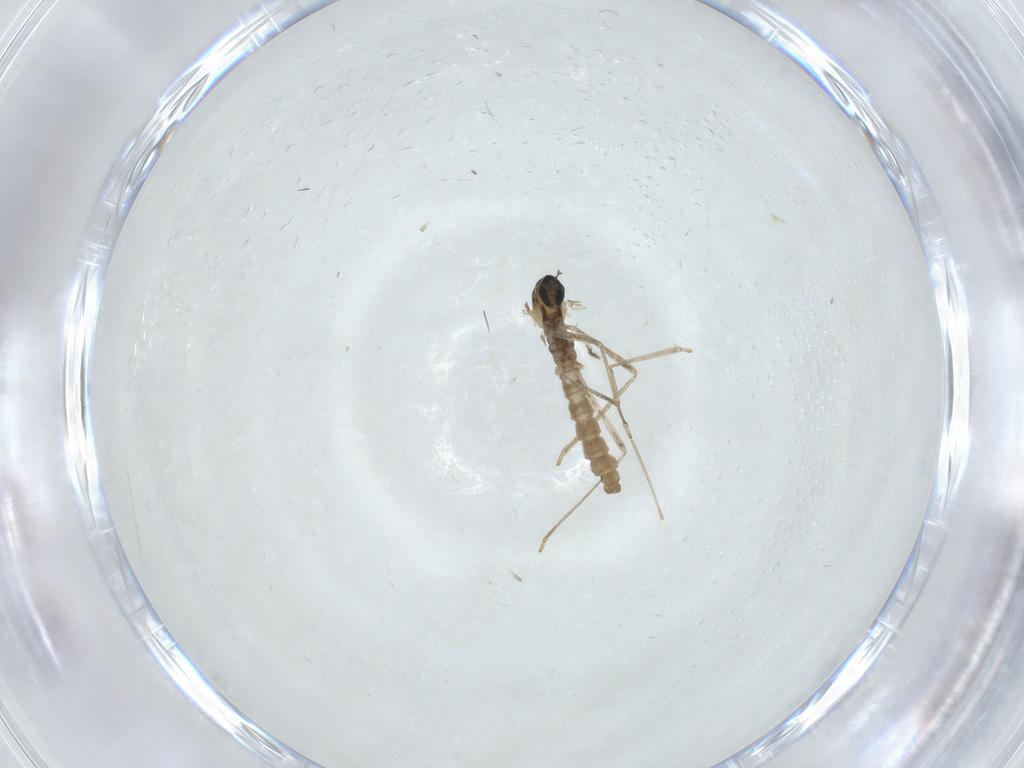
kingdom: Animalia
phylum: Arthropoda
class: Insecta
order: Diptera
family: Cecidomyiidae
